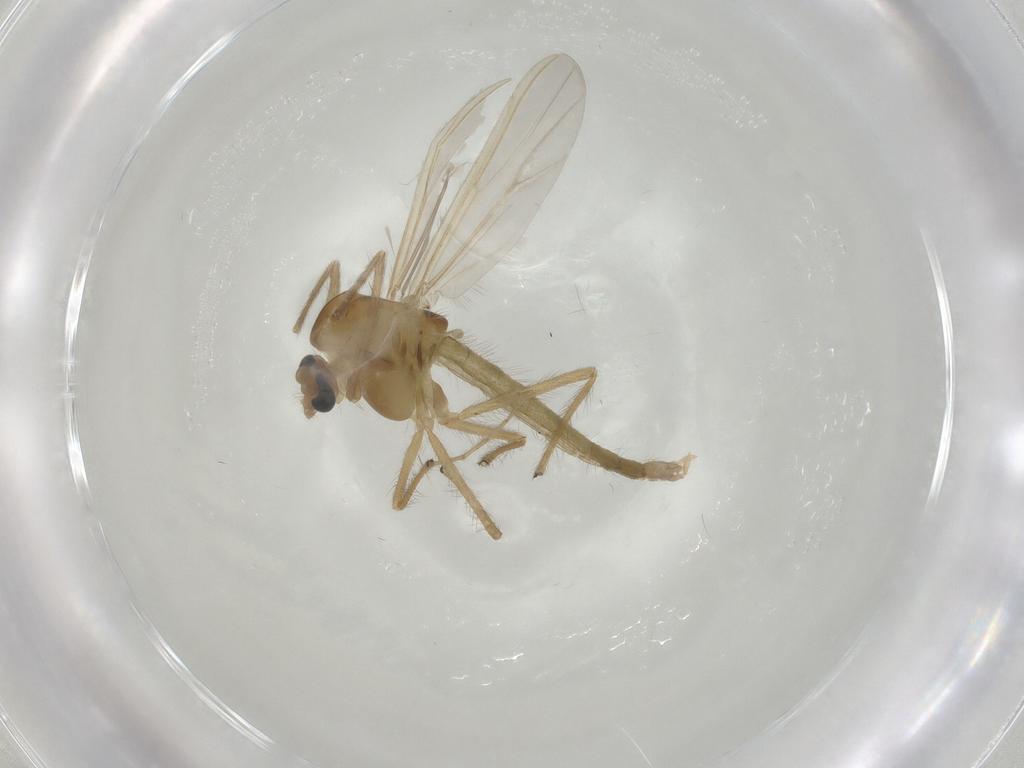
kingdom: Animalia
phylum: Arthropoda
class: Insecta
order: Diptera
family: Chironomidae
